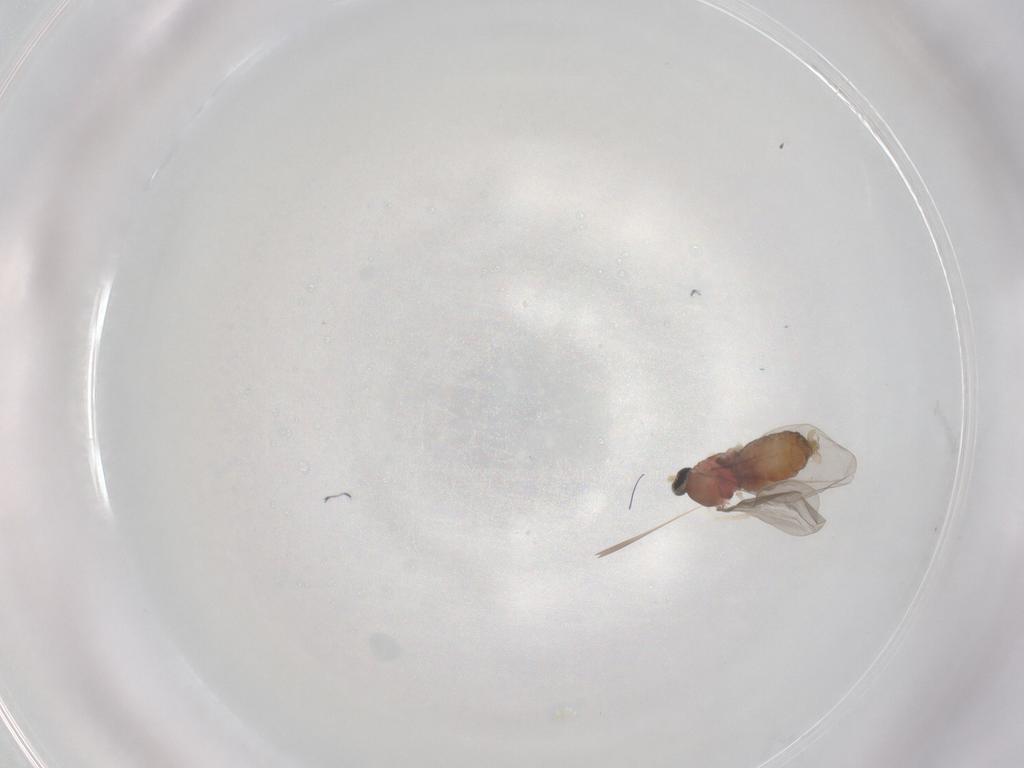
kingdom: Animalia
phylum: Arthropoda
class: Insecta
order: Diptera
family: Cecidomyiidae
